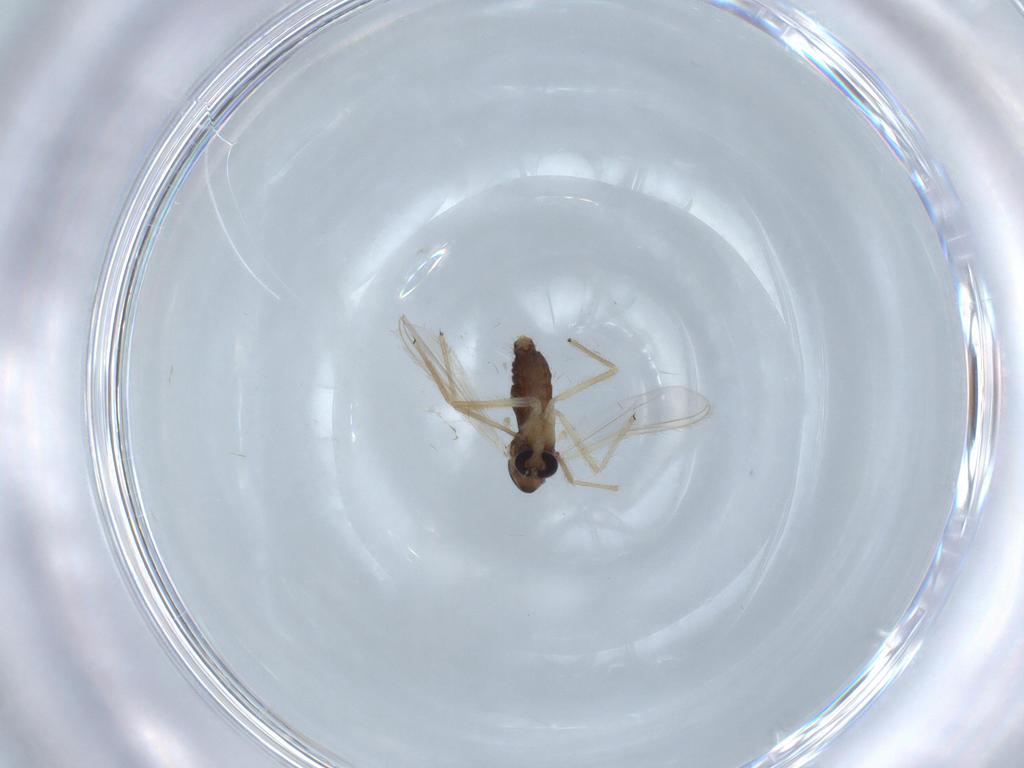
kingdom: Animalia
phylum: Arthropoda
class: Insecta
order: Diptera
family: Chironomidae
